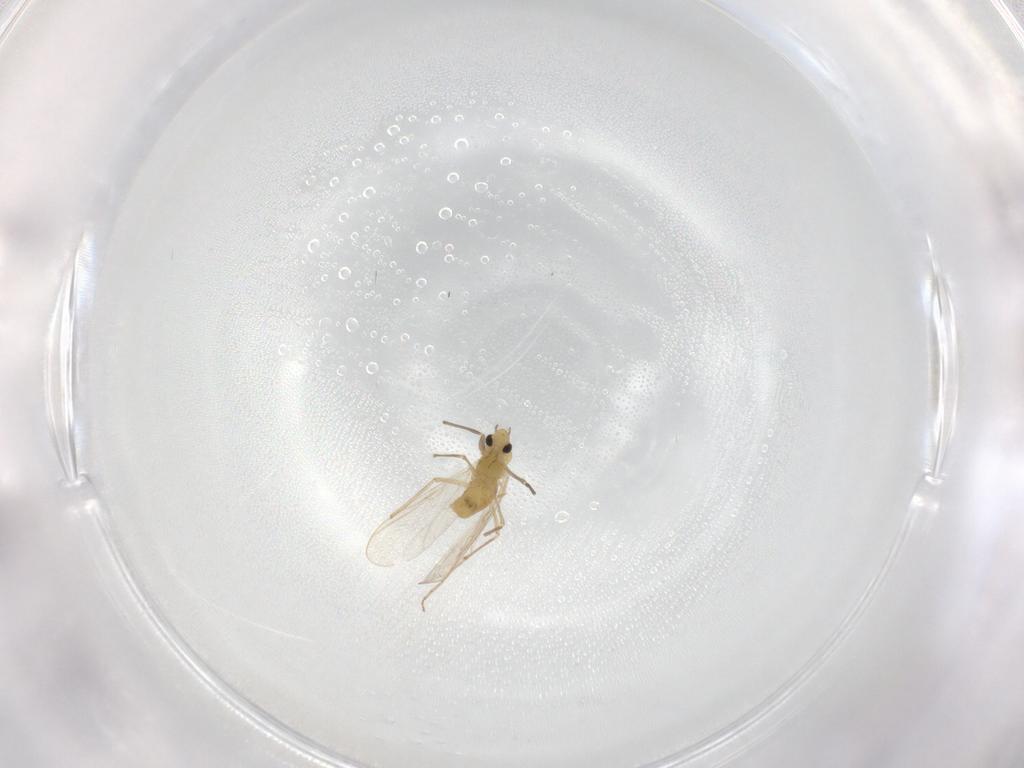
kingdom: Animalia
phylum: Arthropoda
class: Insecta
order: Diptera
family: Chironomidae
